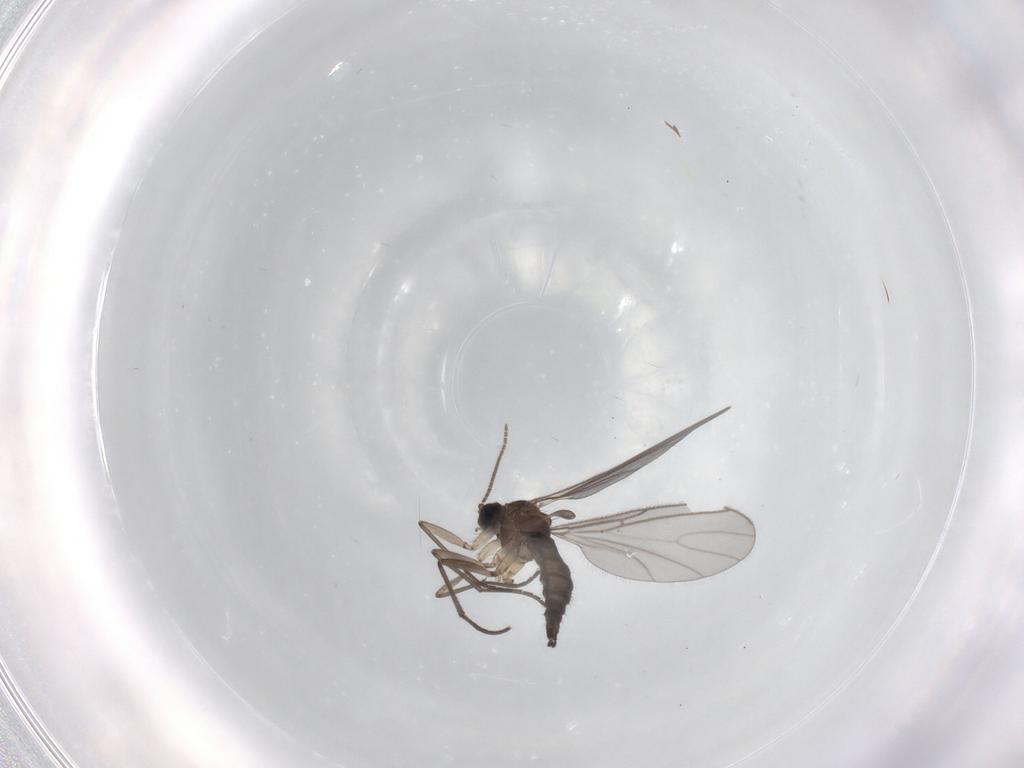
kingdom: Animalia
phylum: Arthropoda
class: Insecta
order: Diptera
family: Sciaridae
